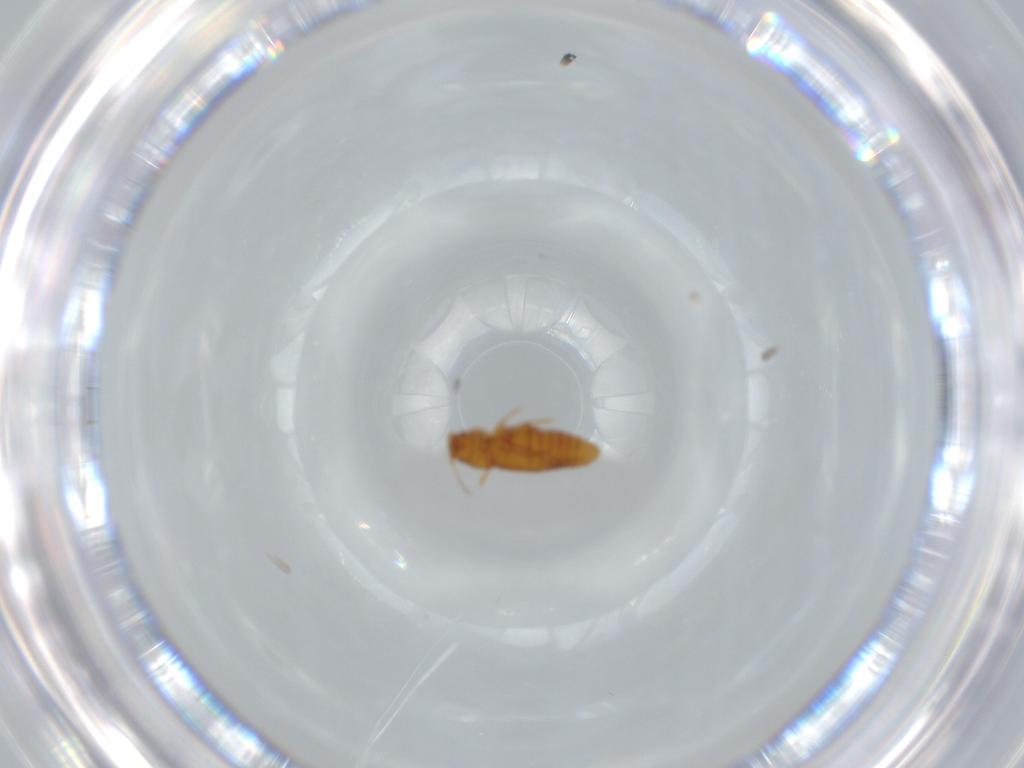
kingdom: Animalia
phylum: Arthropoda
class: Insecta
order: Coleoptera
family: Ptiliidae
